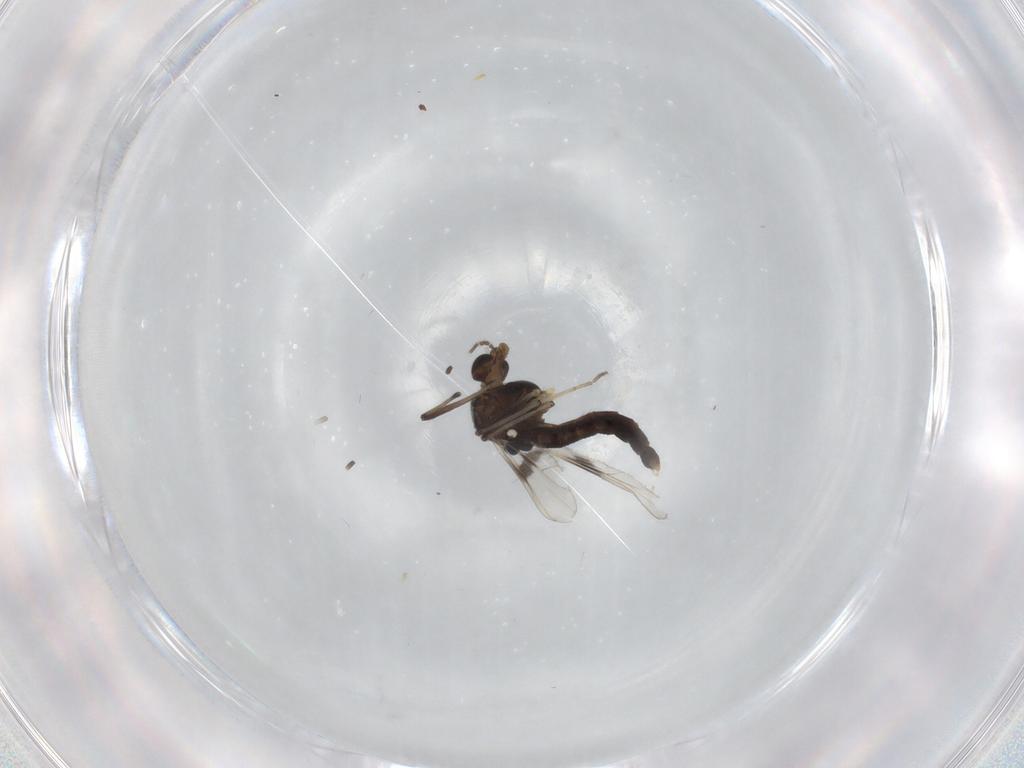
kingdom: Animalia
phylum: Arthropoda
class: Insecta
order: Diptera
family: Chironomidae
